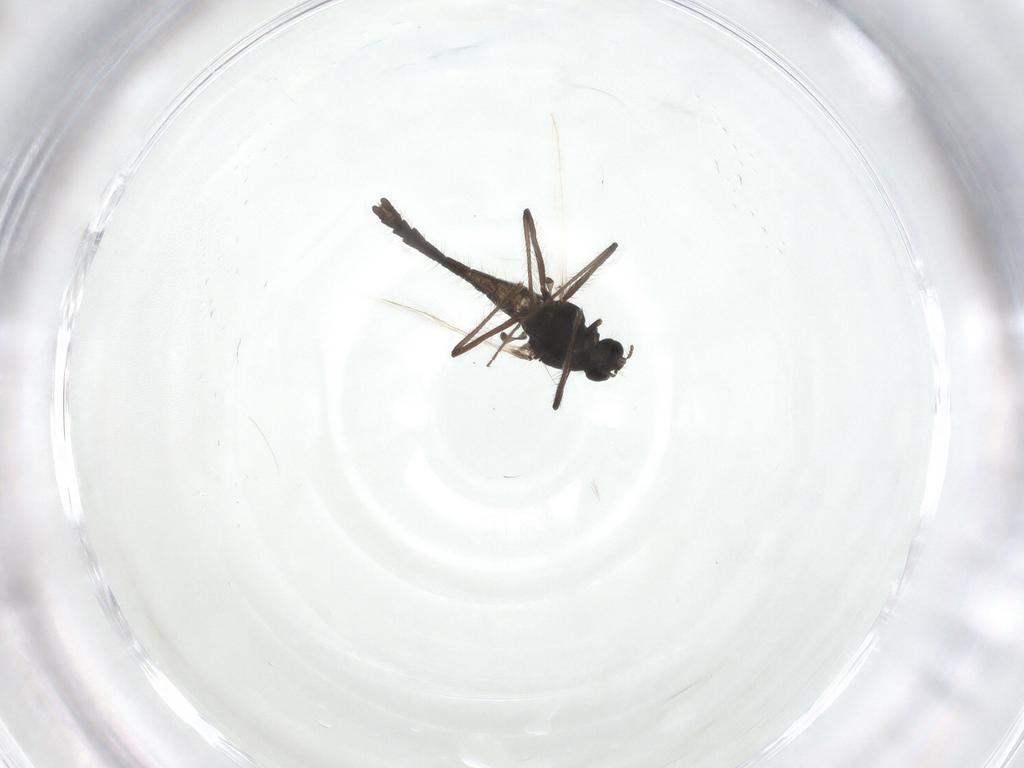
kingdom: Animalia
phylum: Arthropoda
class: Insecta
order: Diptera
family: Chironomidae
